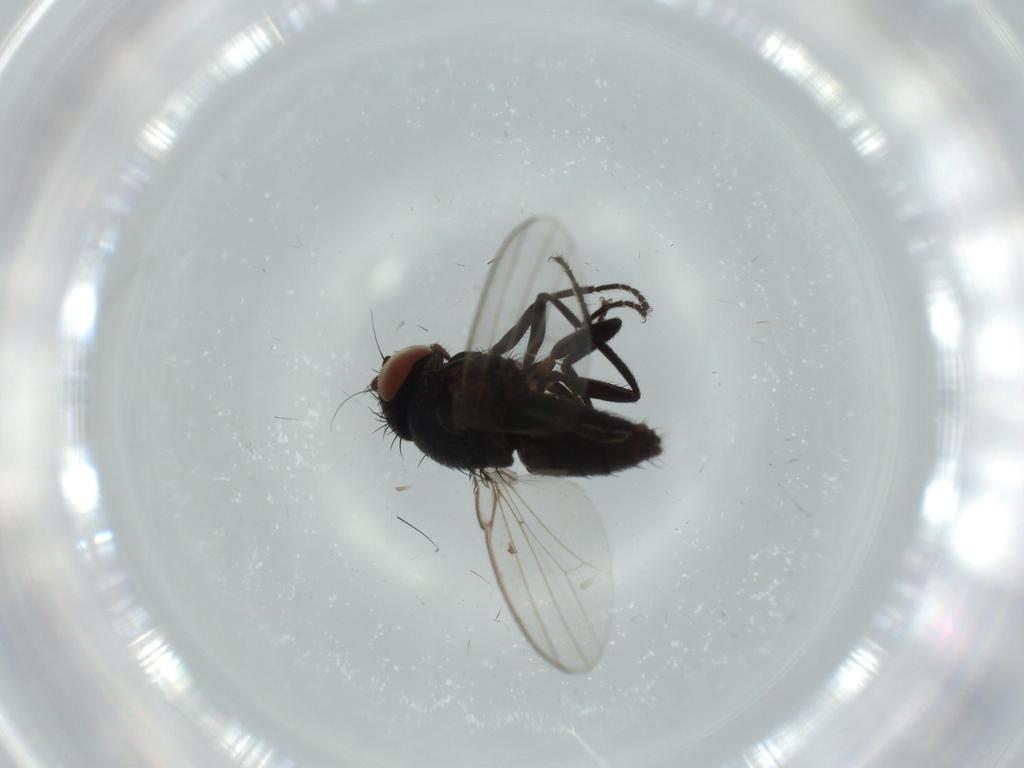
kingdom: Animalia
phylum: Arthropoda
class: Insecta
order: Diptera
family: Milichiidae
